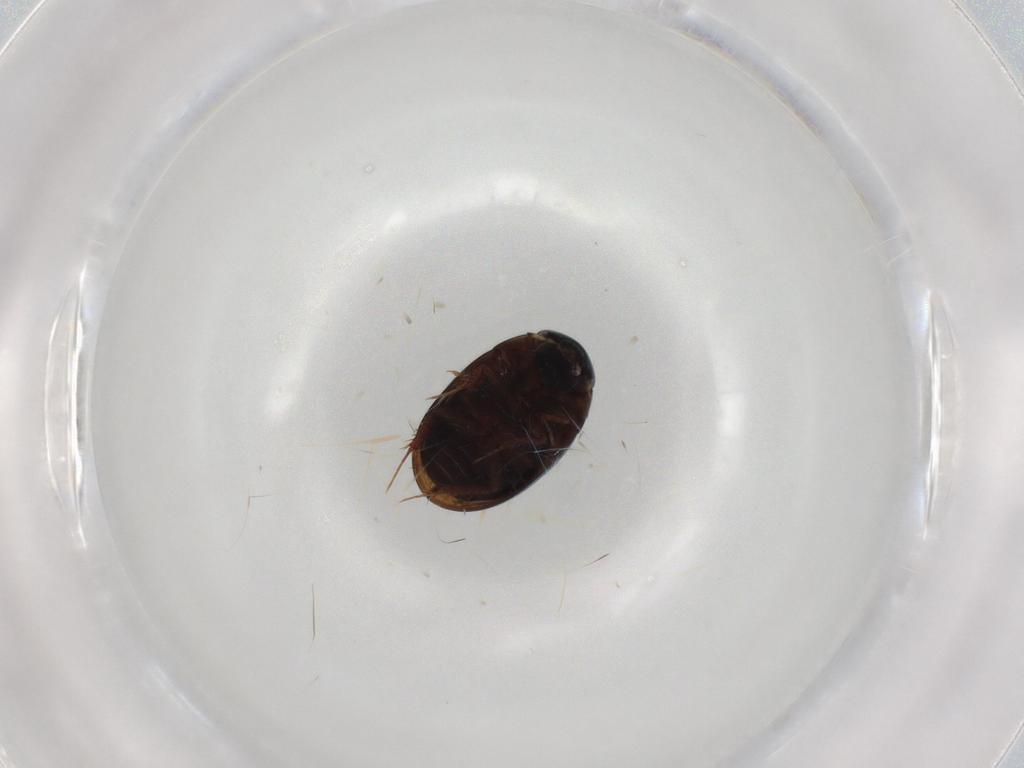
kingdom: Animalia
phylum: Arthropoda
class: Insecta
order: Coleoptera
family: Hydrophilidae
